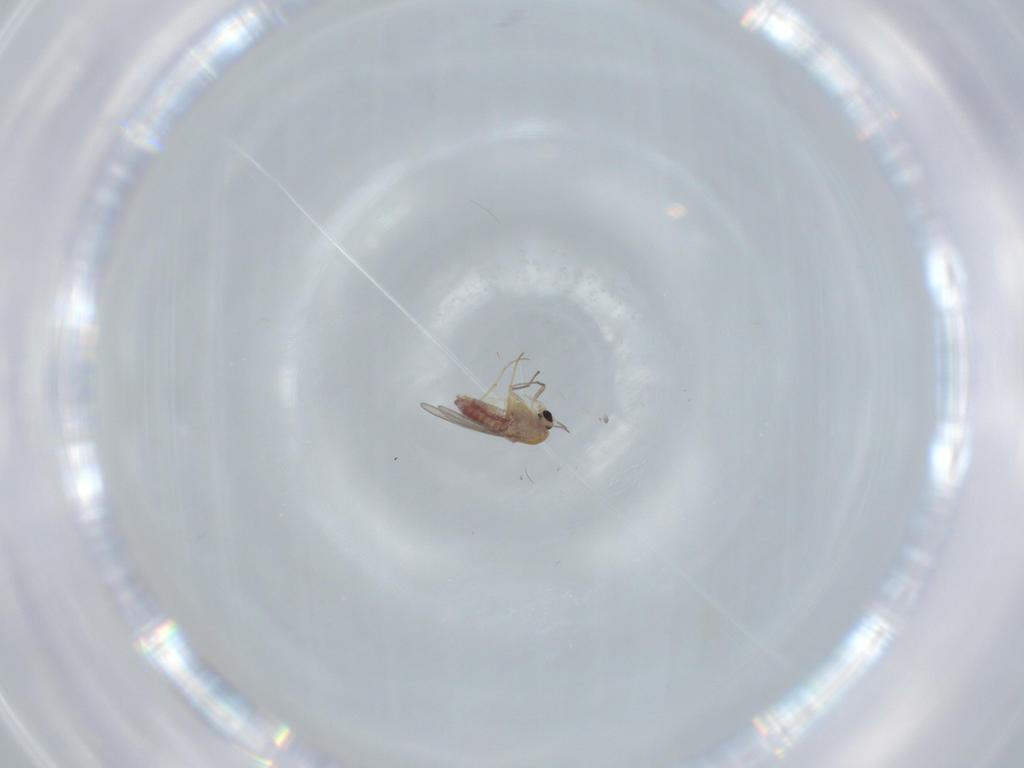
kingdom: Animalia
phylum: Arthropoda
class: Insecta
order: Diptera
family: Chironomidae
